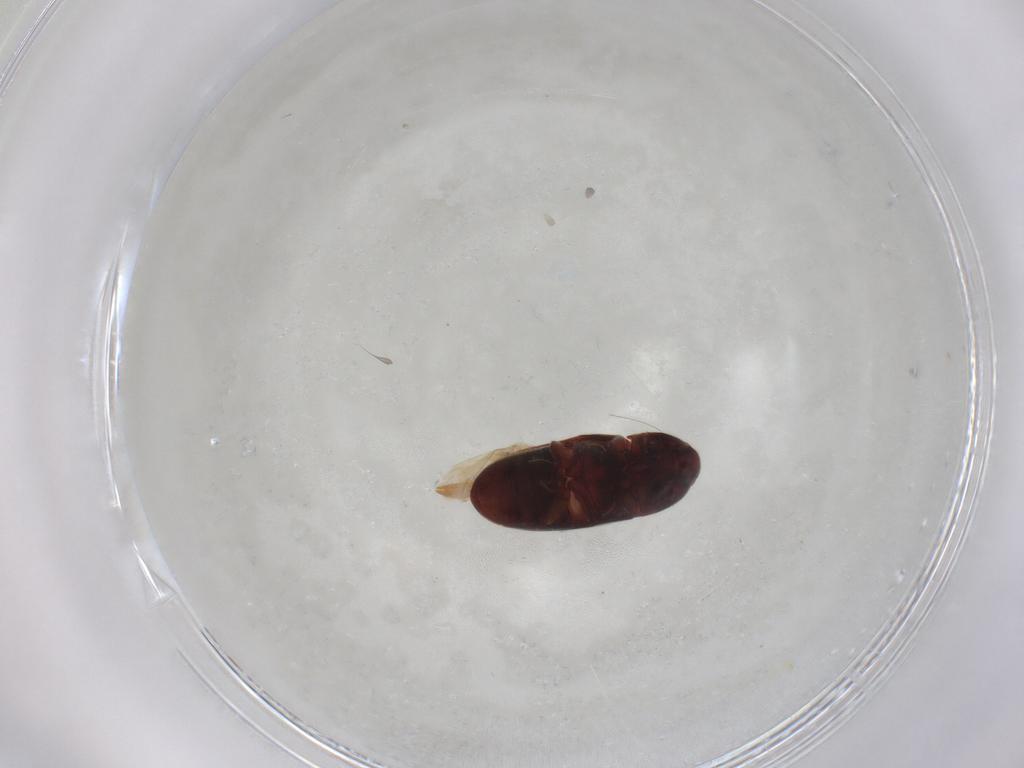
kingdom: Animalia
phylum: Arthropoda
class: Insecta
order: Coleoptera
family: Throscidae
